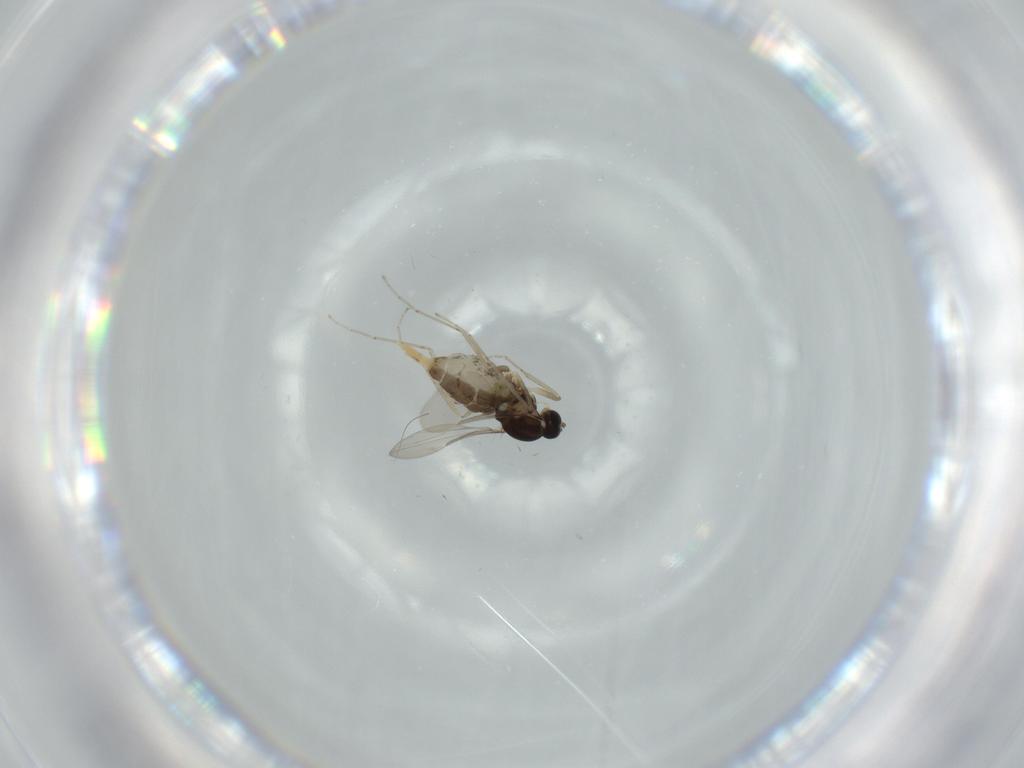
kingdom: Animalia
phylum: Arthropoda
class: Insecta
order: Diptera
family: Cecidomyiidae
